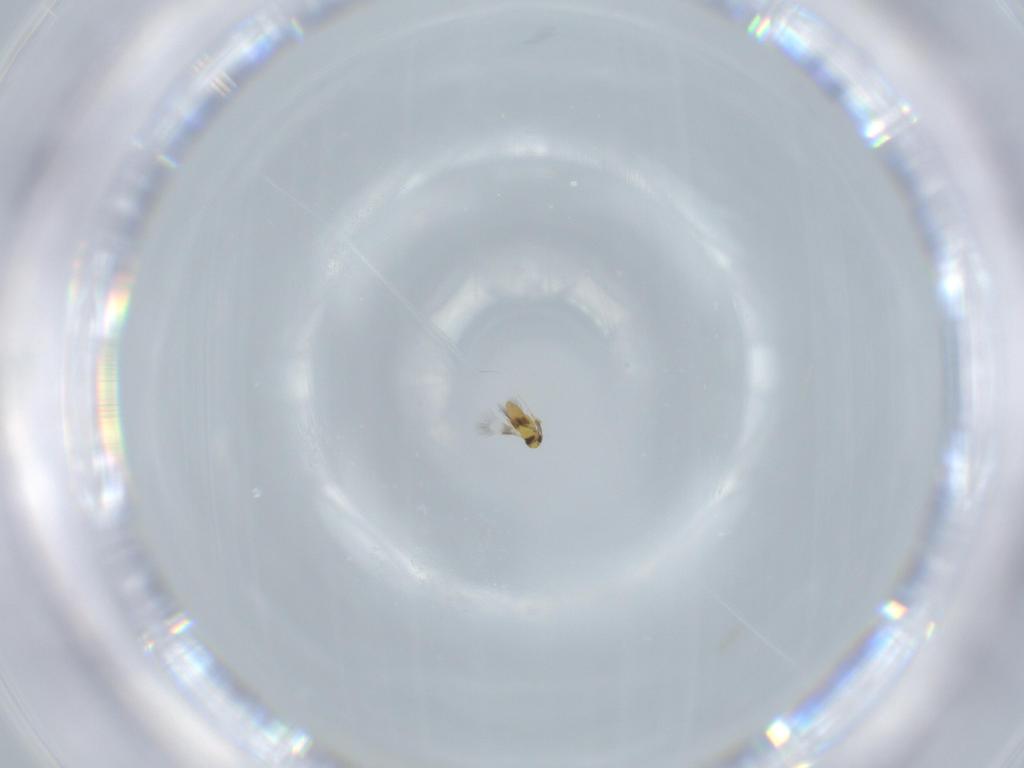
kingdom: Animalia
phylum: Arthropoda
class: Insecta
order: Hymenoptera
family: Mymaridae
